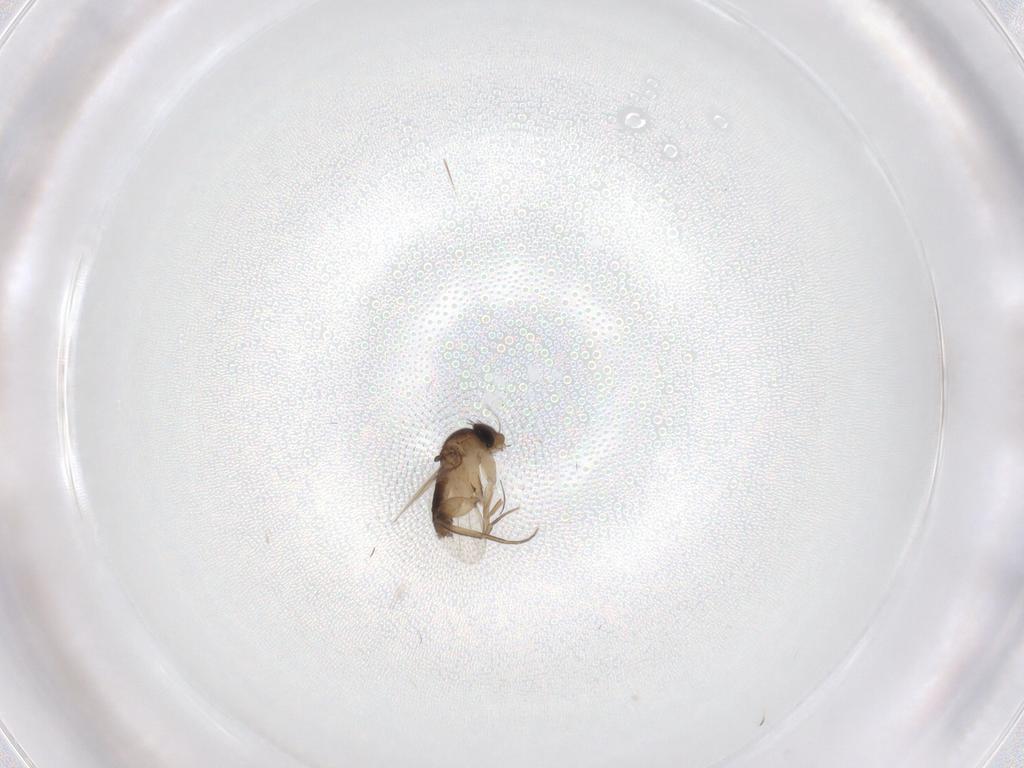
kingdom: Animalia
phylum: Arthropoda
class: Insecta
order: Diptera
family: Phoridae
